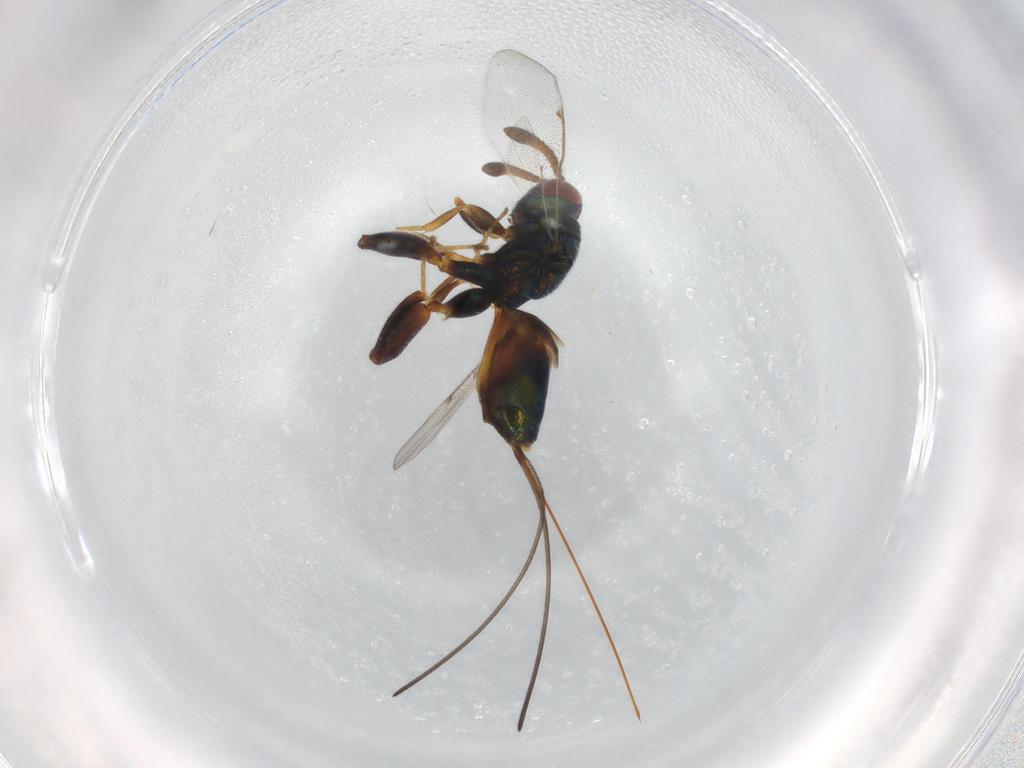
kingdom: Animalia
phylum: Arthropoda
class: Insecta
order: Hymenoptera
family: Torymidae
